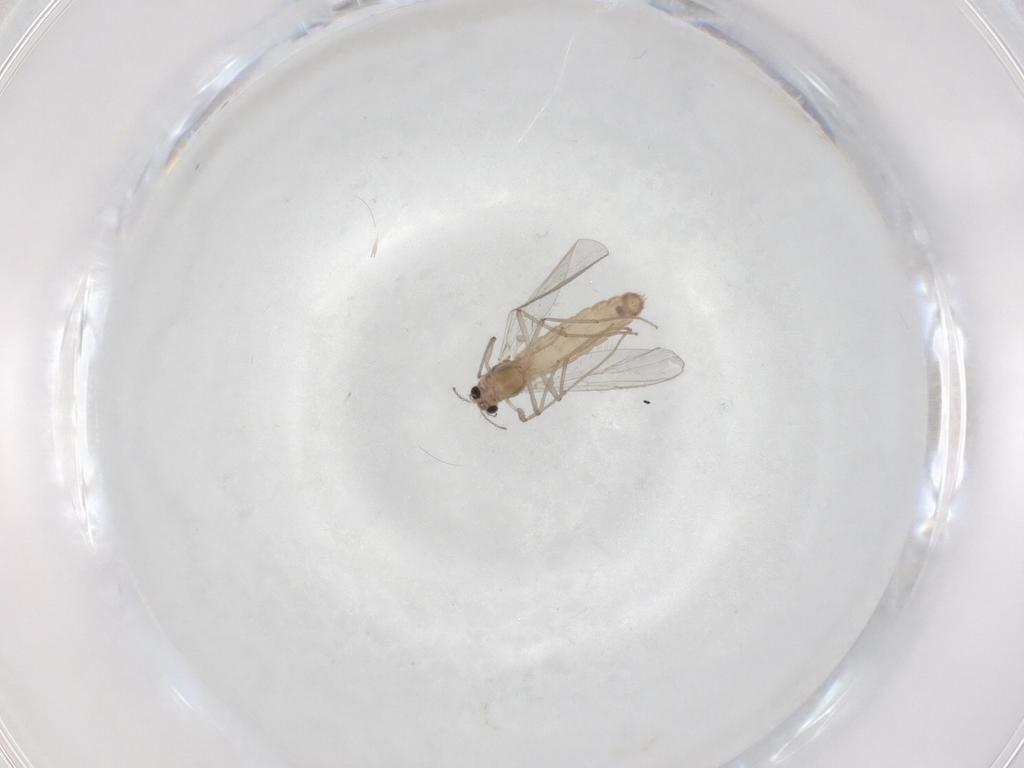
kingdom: Animalia
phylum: Arthropoda
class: Insecta
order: Diptera
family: Chironomidae
